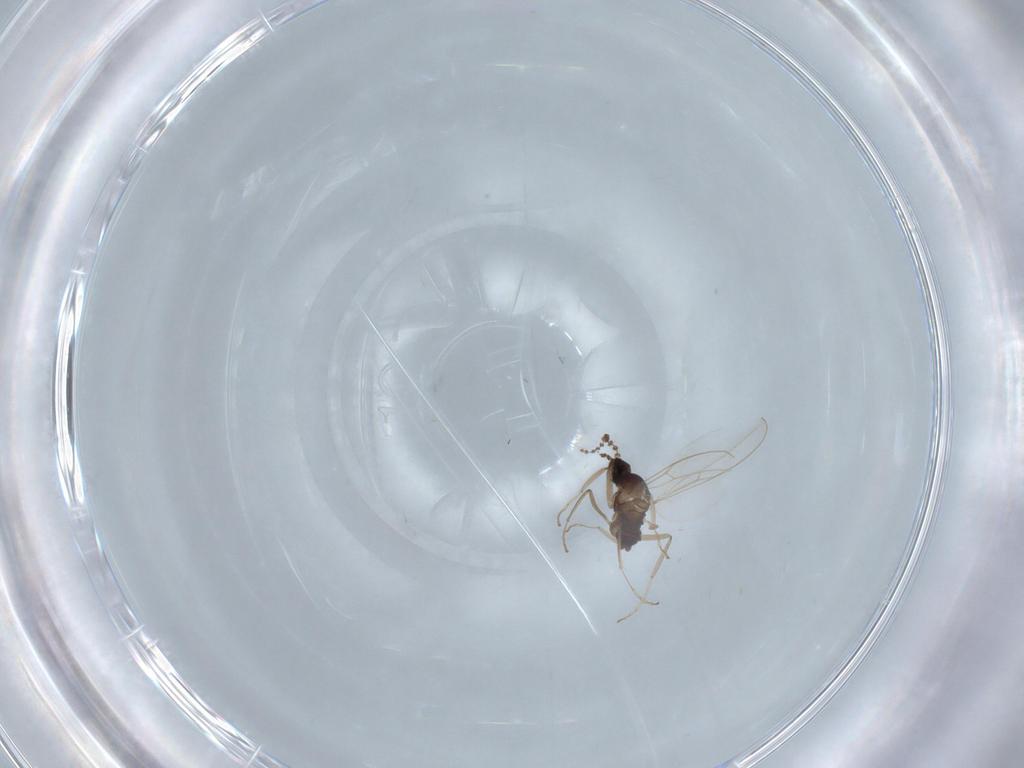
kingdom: Animalia
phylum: Arthropoda
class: Insecta
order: Diptera
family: Cecidomyiidae
